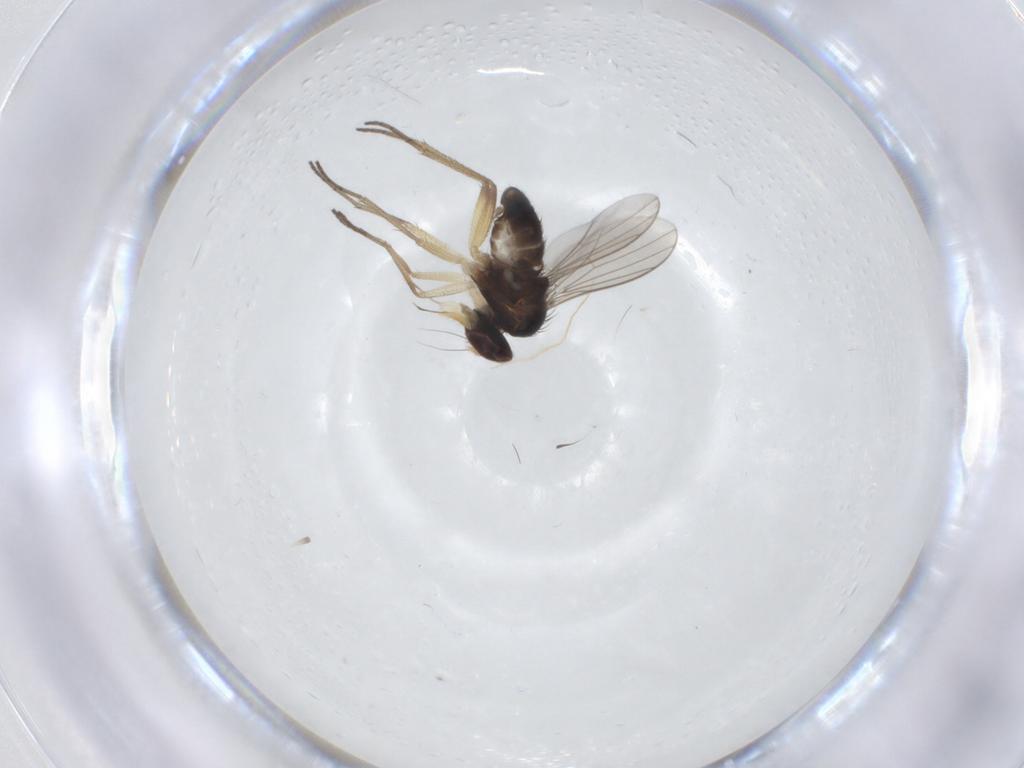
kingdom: Animalia
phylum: Arthropoda
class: Insecta
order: Diptera
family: Dolichopodidae
